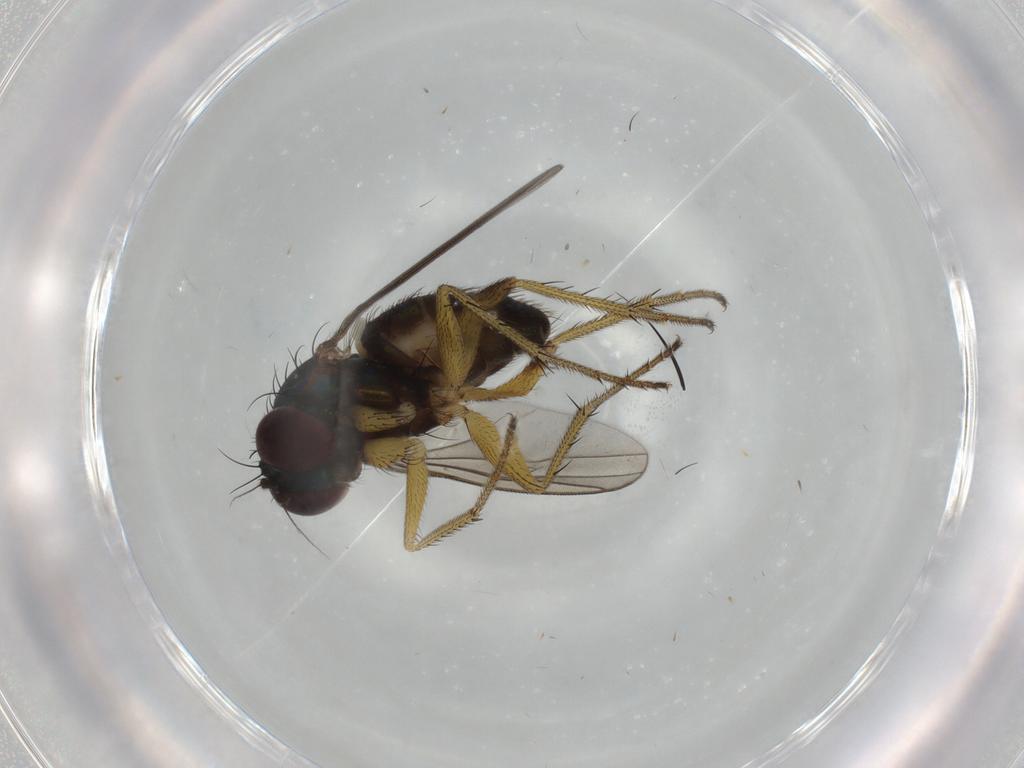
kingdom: Animalia
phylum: Arthropoda
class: Insecta
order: Diptera
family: Dolichopodidae
